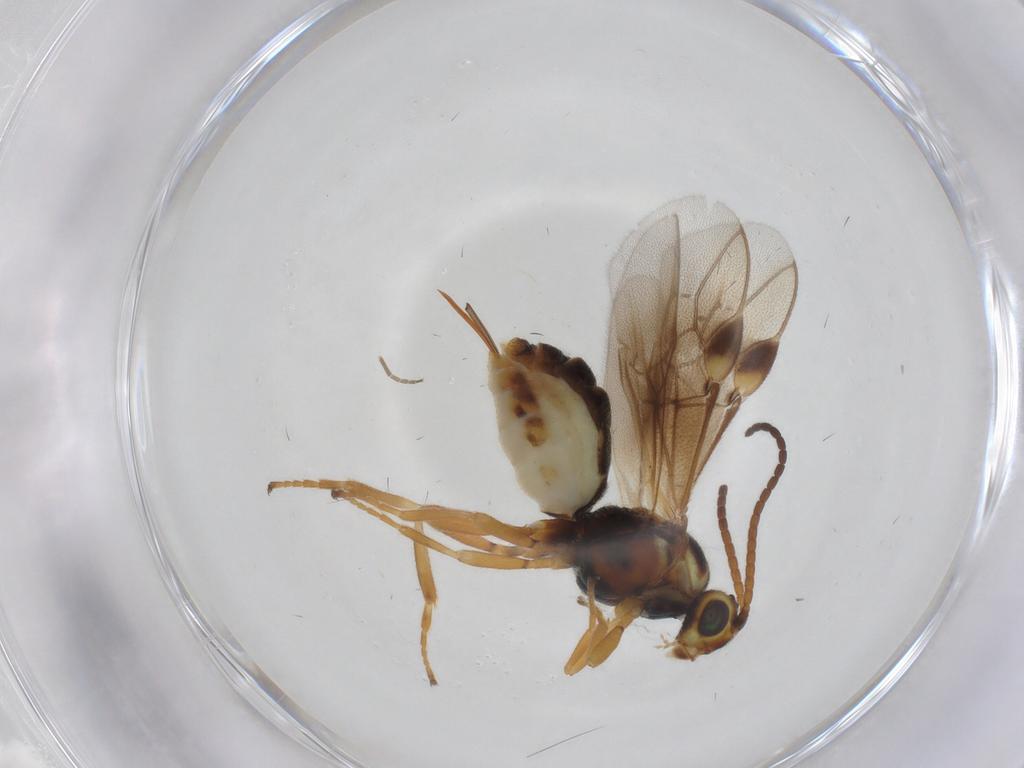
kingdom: Animalia
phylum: Arthropoda
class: Insecta
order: Hymenoptera
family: Braconidae
